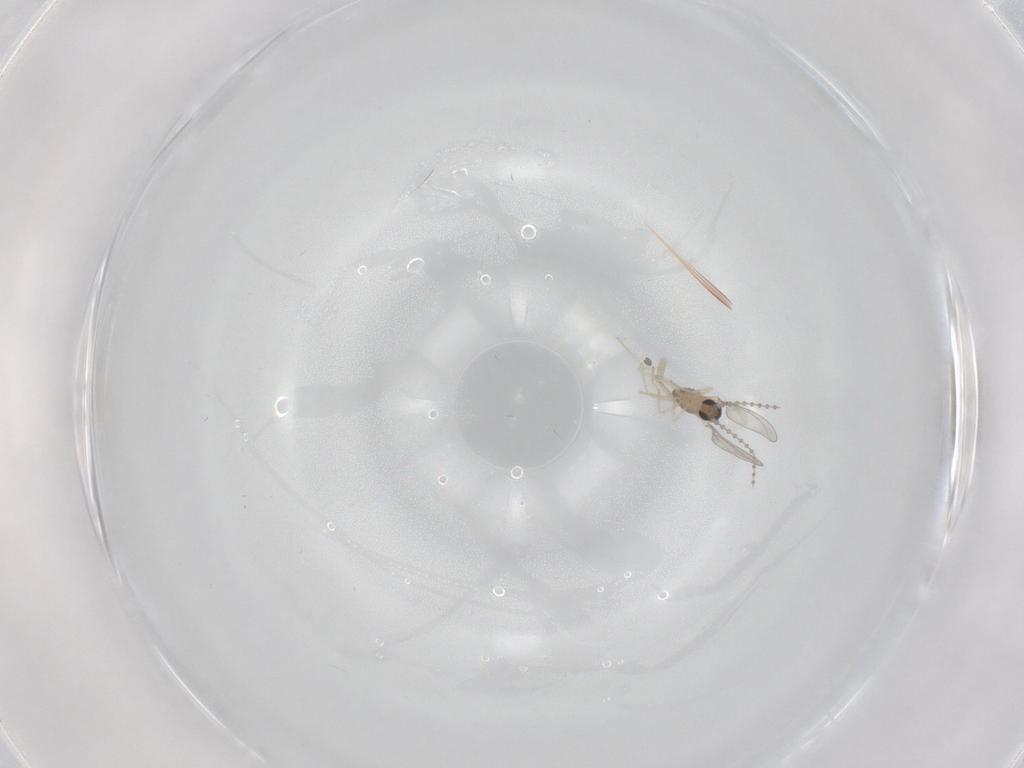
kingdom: Animalia
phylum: Arthropoda
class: Insecta
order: Diptera
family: Cecidomyiidae
